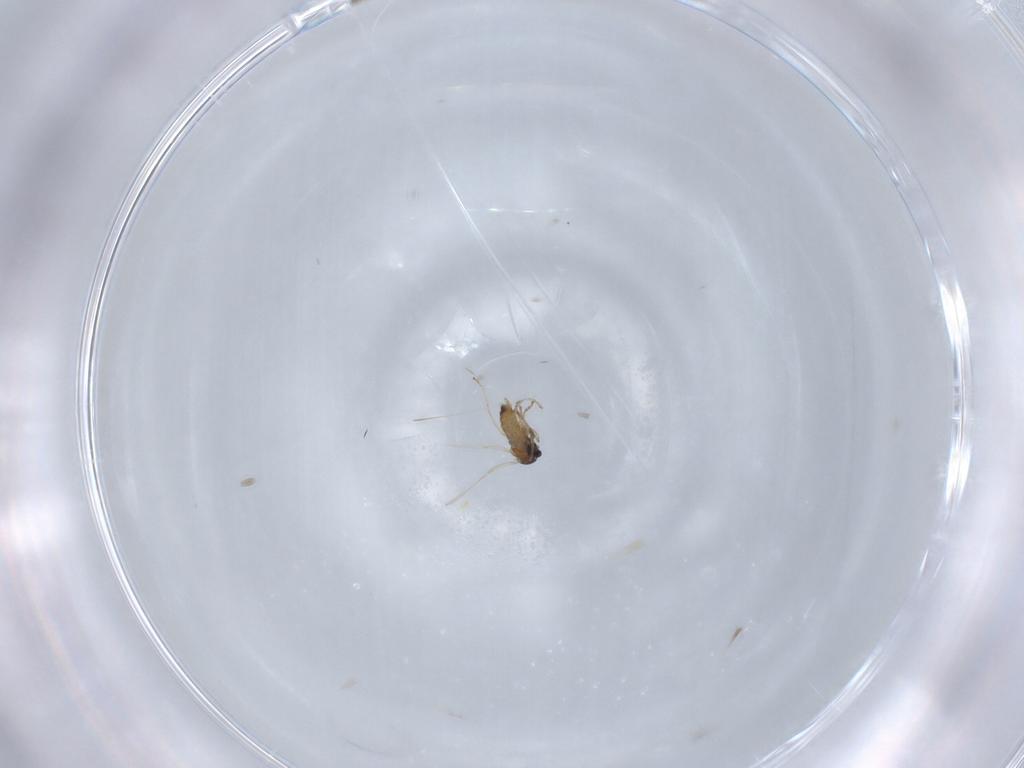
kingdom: Animalia
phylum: Arthropoda
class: Insecta
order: Diptera
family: Cecidomyiidae
